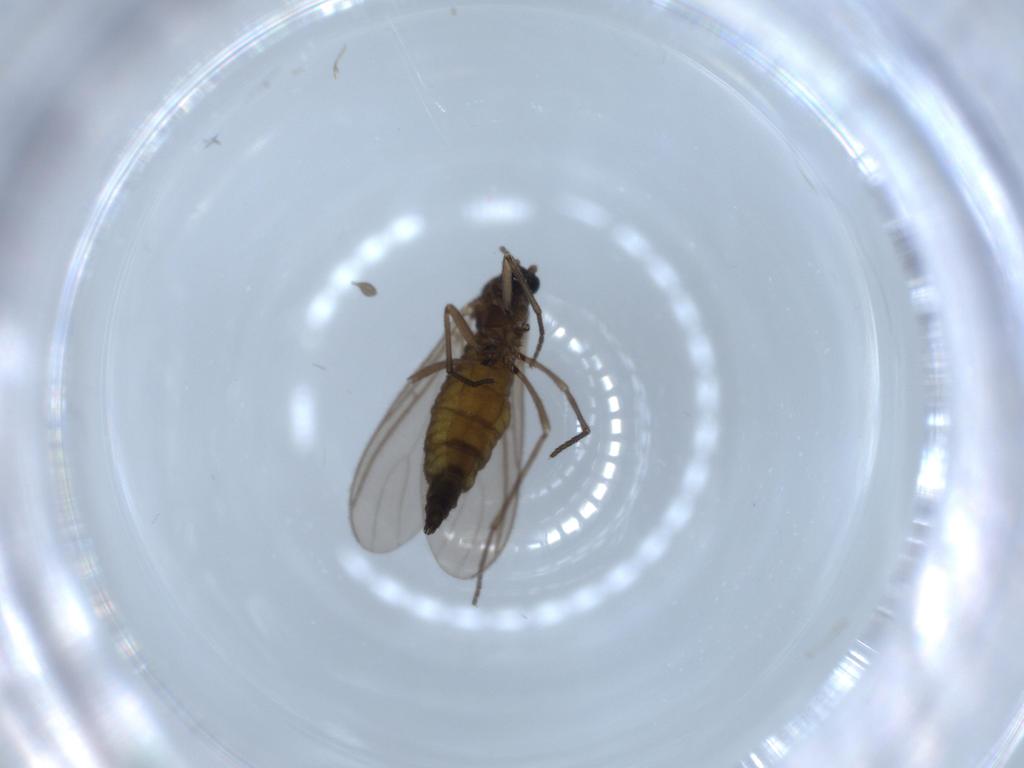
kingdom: Animalia
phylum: Arthropoda
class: Insecta
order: Diptera
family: Sciaridae
